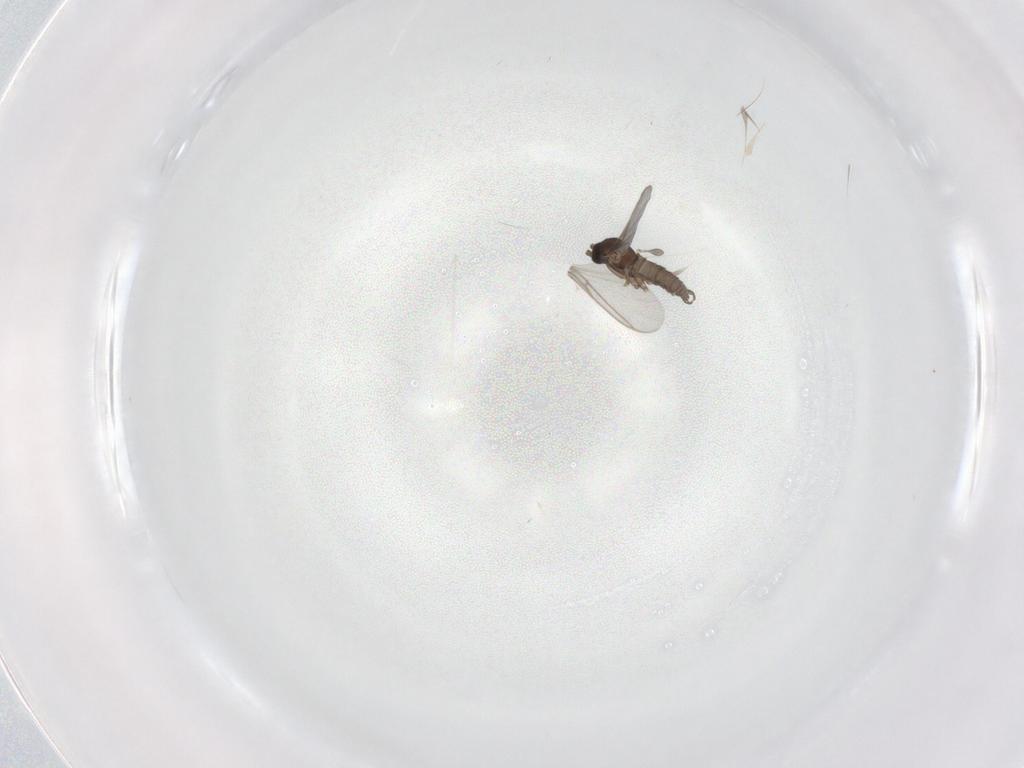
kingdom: Animalia
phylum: Arthropoda
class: Insecta
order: Diptera
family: Sciaridae
